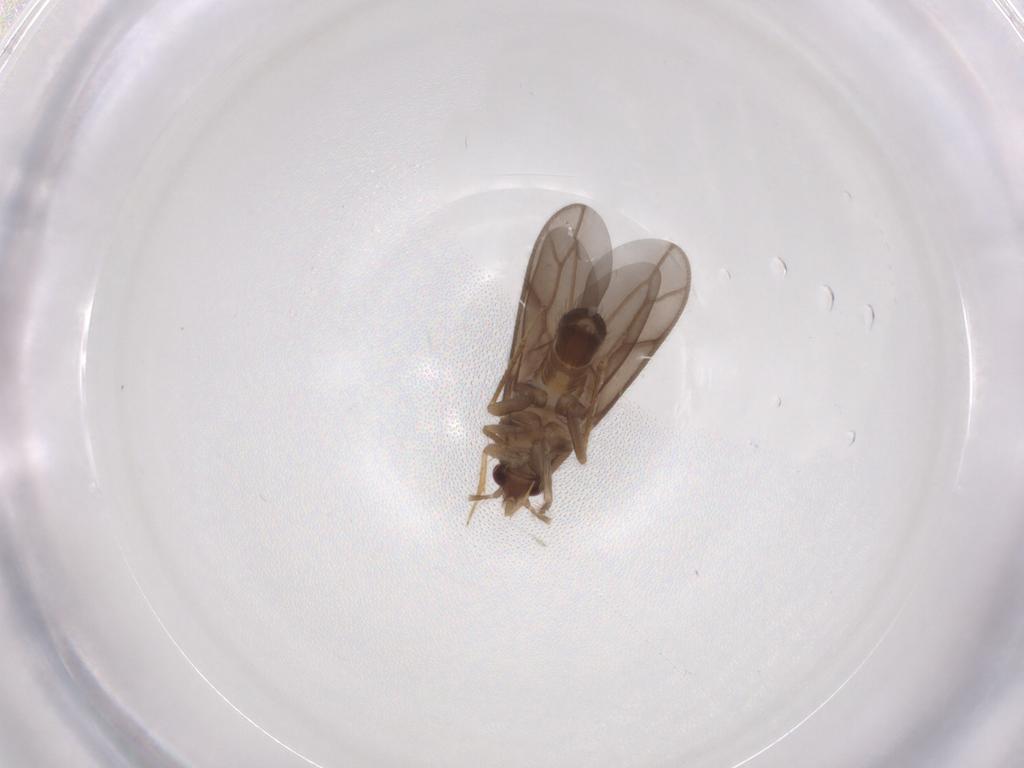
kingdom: Animalia
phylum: Arthropoda
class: Insecta
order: Hemiptera
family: Ceratocombidae
